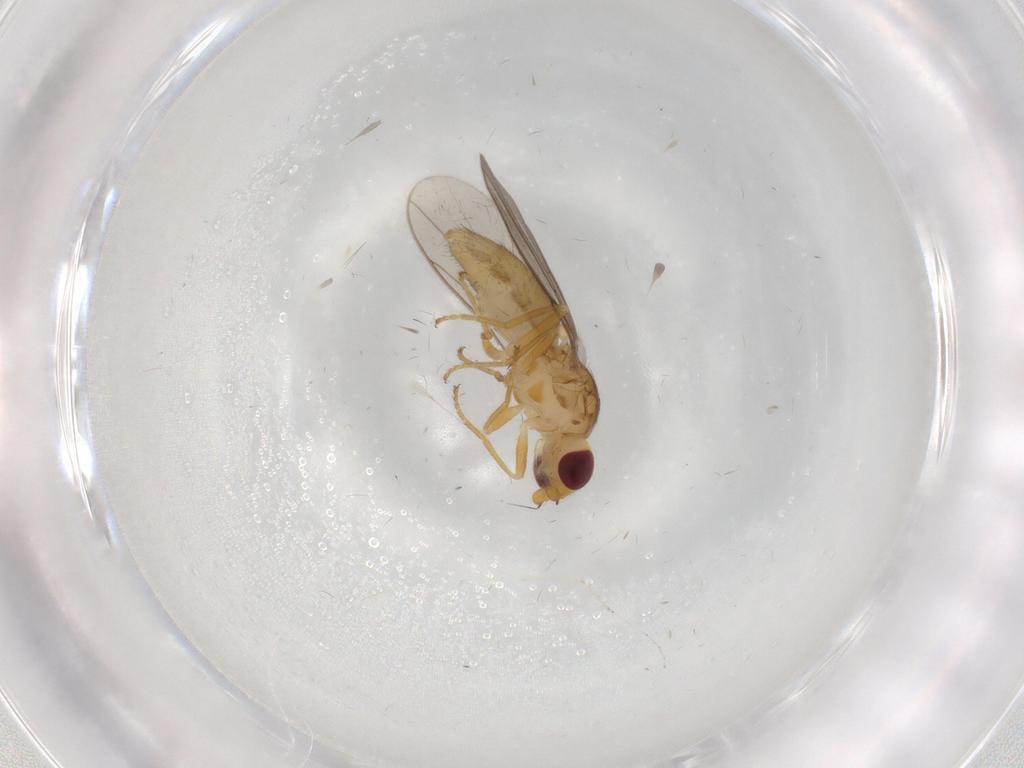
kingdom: Animalia
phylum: Arthropoda
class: Insecta
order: Diptera
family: Chloropidae
